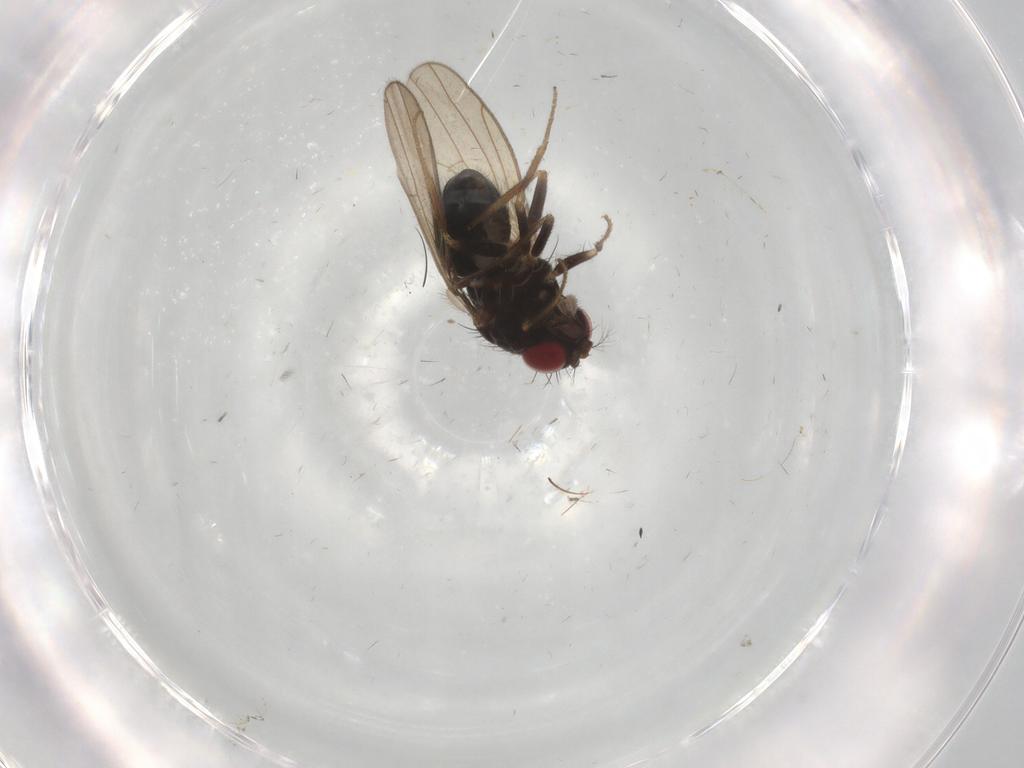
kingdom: Animalia
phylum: Arthropoda
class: Insecta
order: Diptera
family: Drosophilidae
